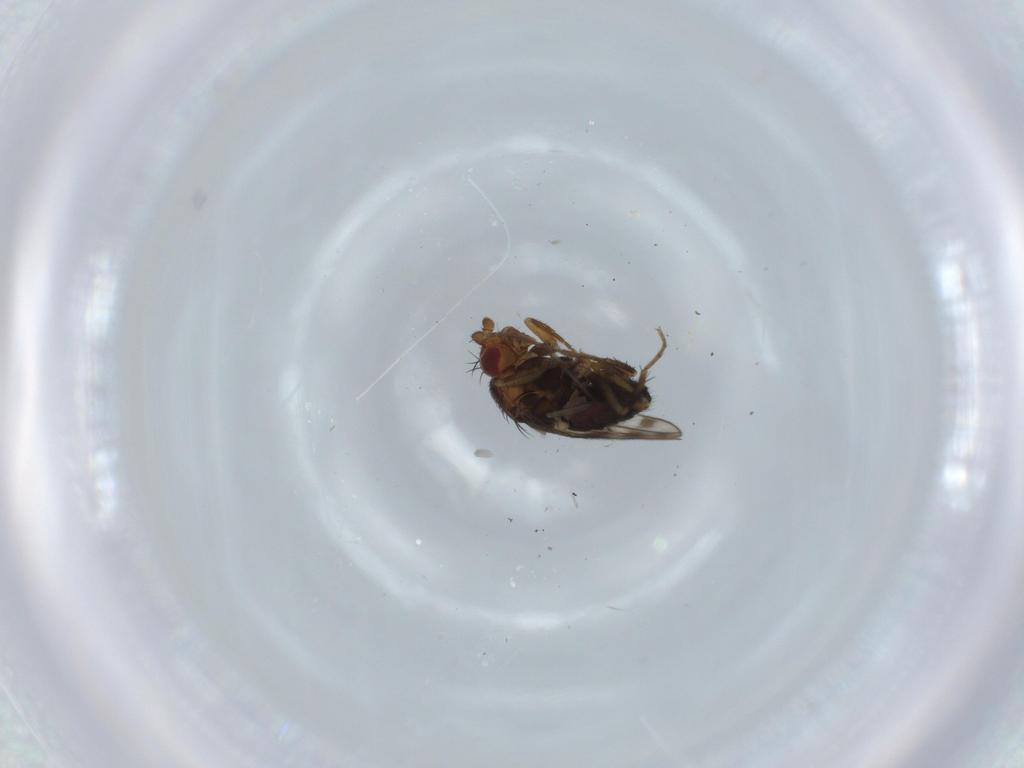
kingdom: Animalia
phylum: Arthropoda
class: Insecta
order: Diptera
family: Sphaeroceridae
